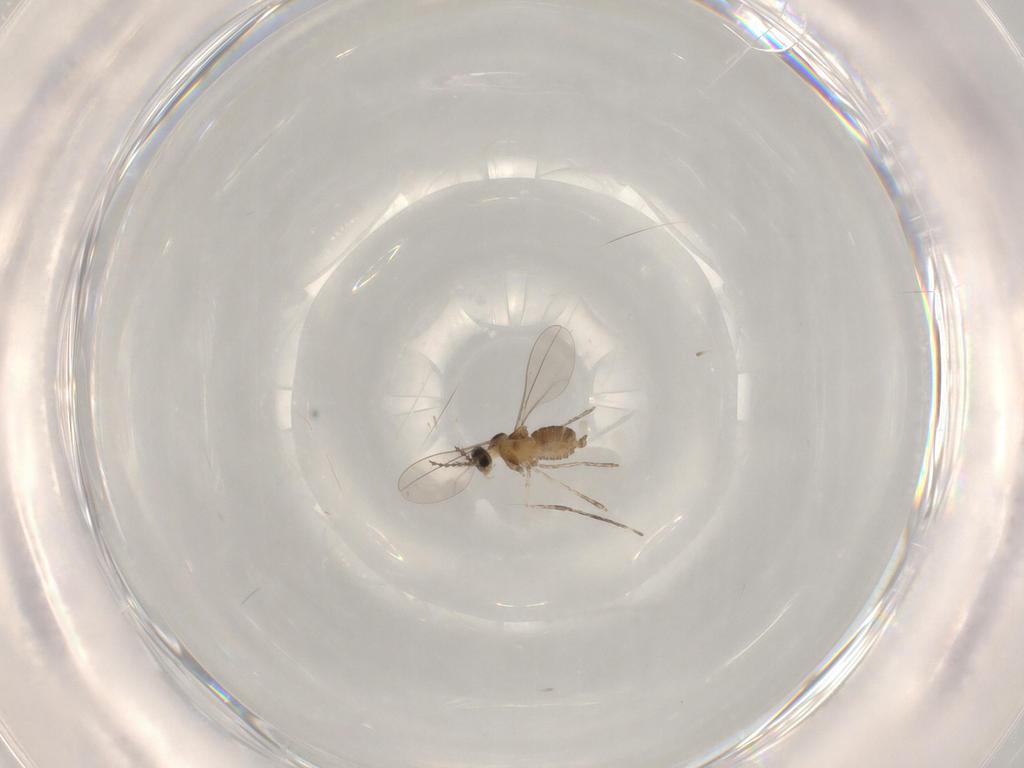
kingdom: Animalia
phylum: Arthropoda
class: Insecta
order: Diptera
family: Cecidomyiidae
